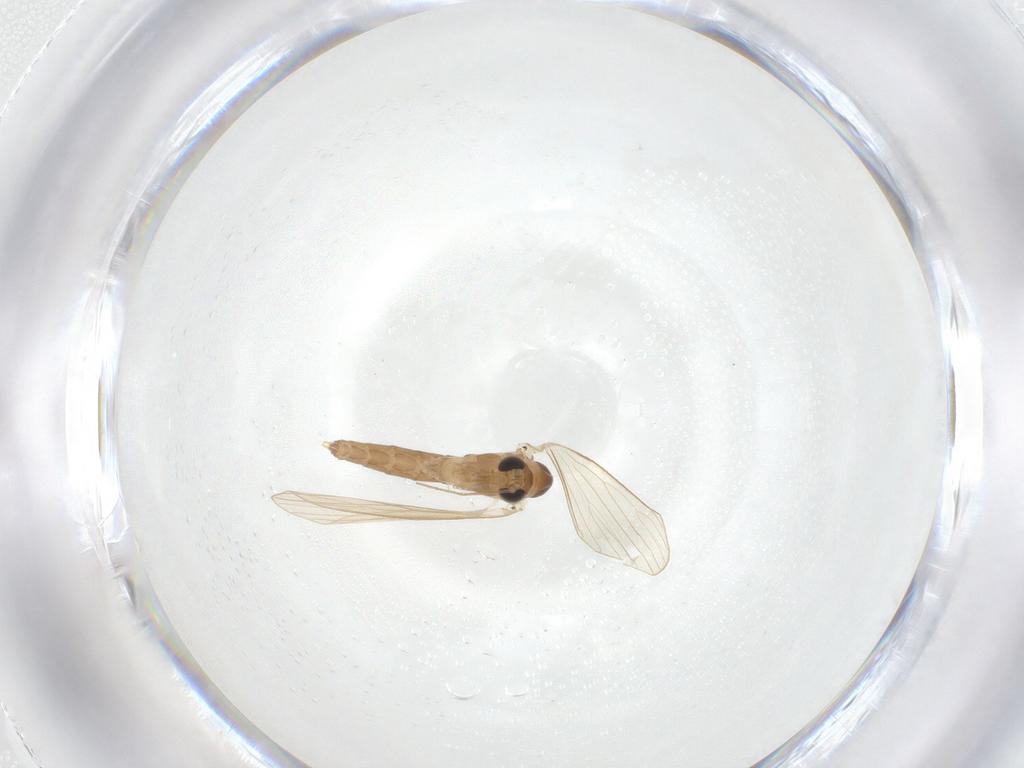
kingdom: Animalia
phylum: Arthropoda
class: Insecta
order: Diptera
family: Psychodidae
